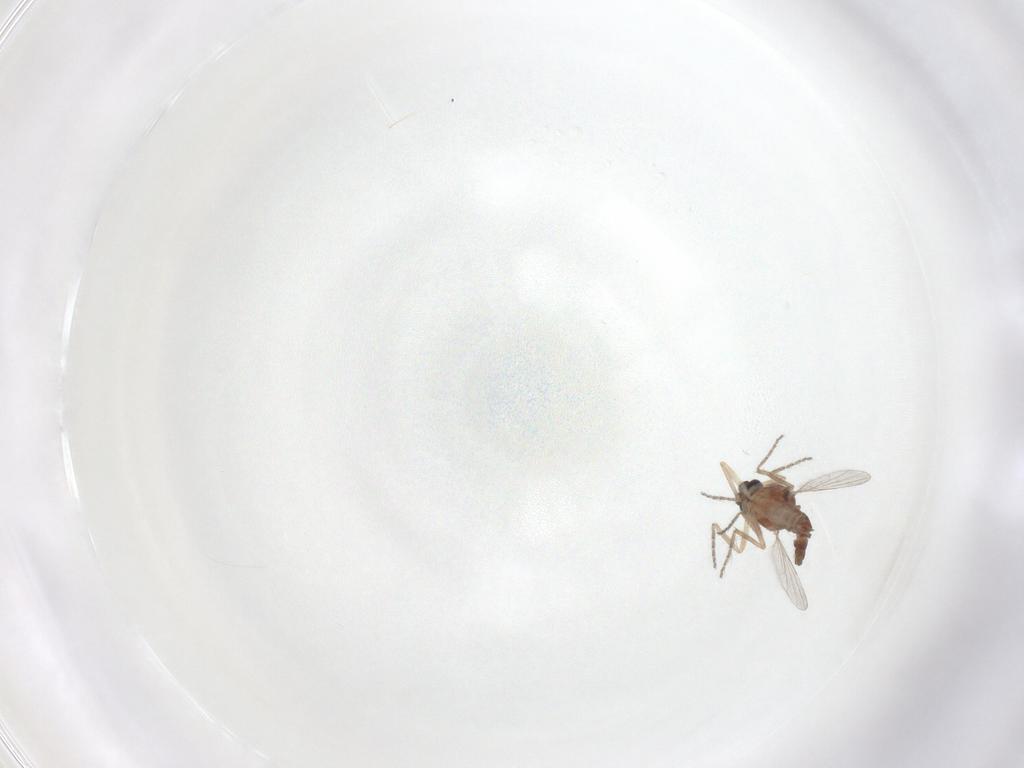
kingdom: Animalia
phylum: Arthropoda
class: Insecta
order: Diptera
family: Ceratopogonidae
